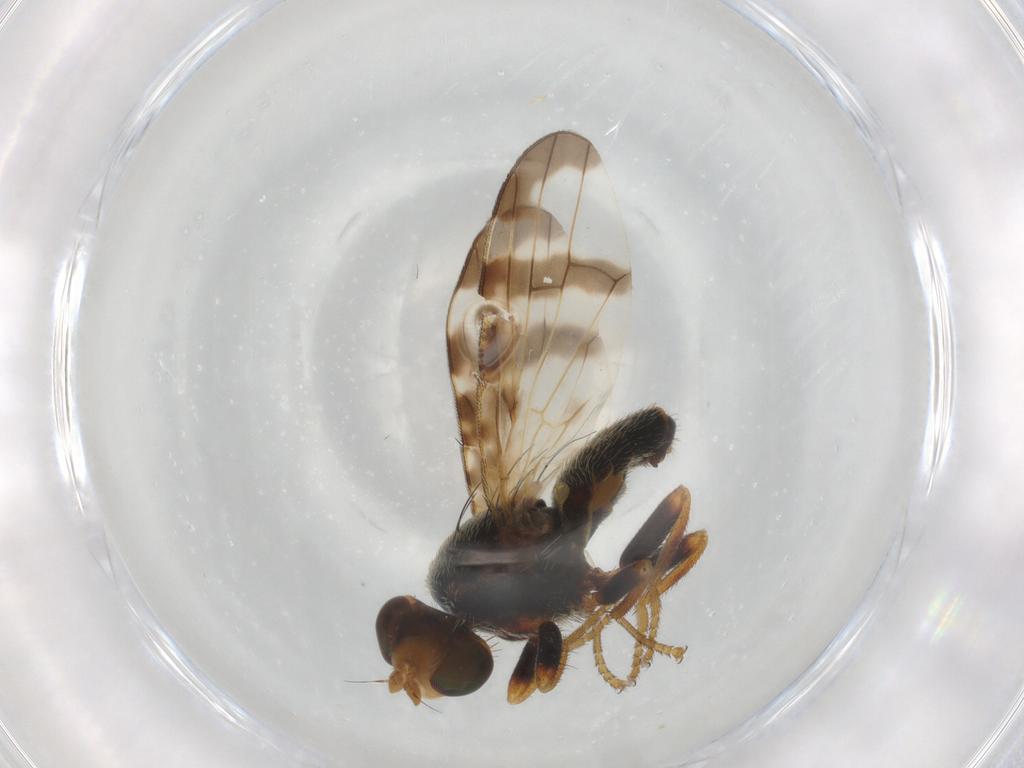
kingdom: Animalia
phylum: Arthropoda
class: Insecta
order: Diptera
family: Tephritidae
